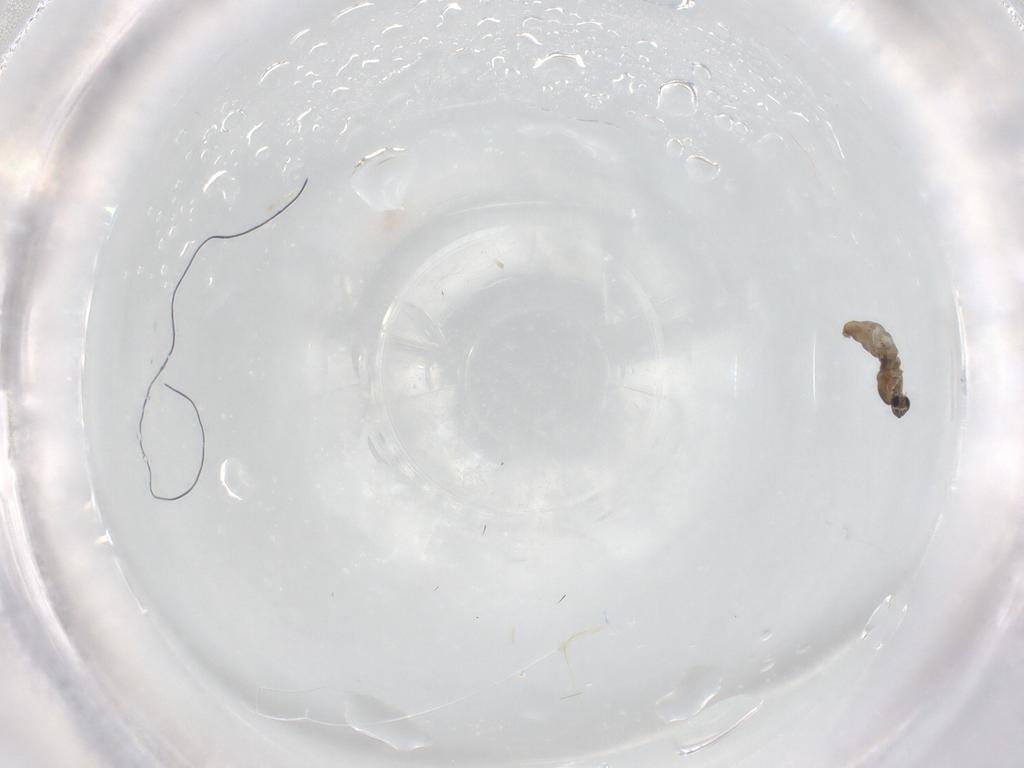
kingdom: Animalia
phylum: Arthropoda
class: Insecta
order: Diptera
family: Cecidomyiidae
